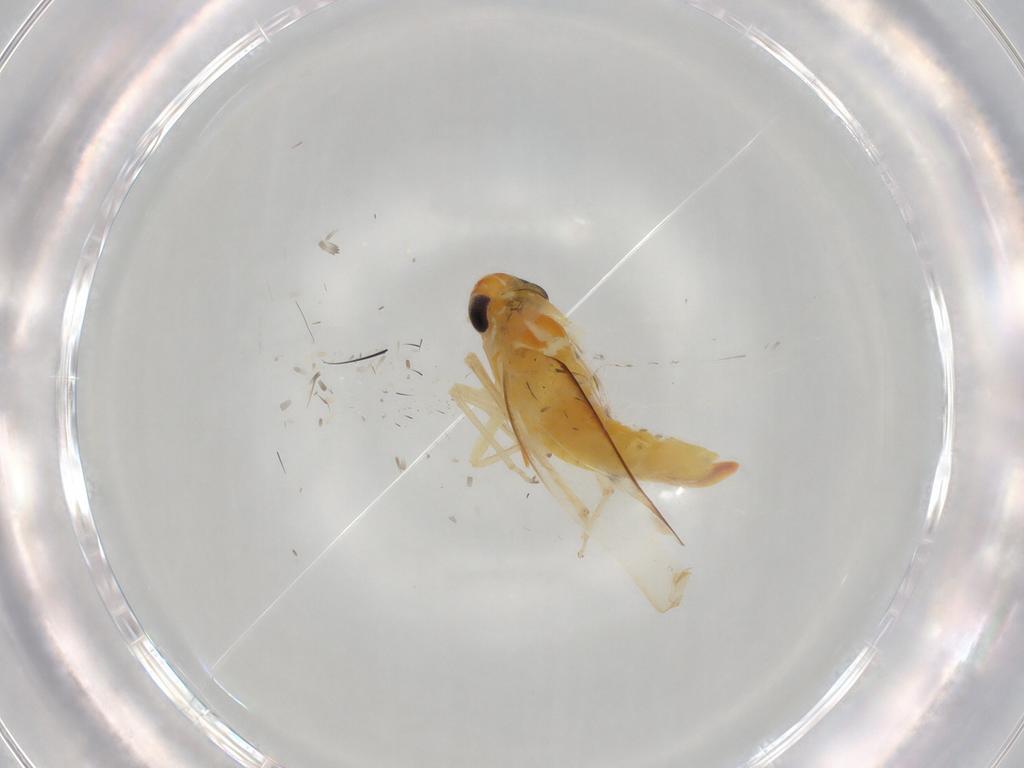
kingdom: Animalia
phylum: Arthropoda
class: Insecta
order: Hemiptera
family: Cicadellidae
